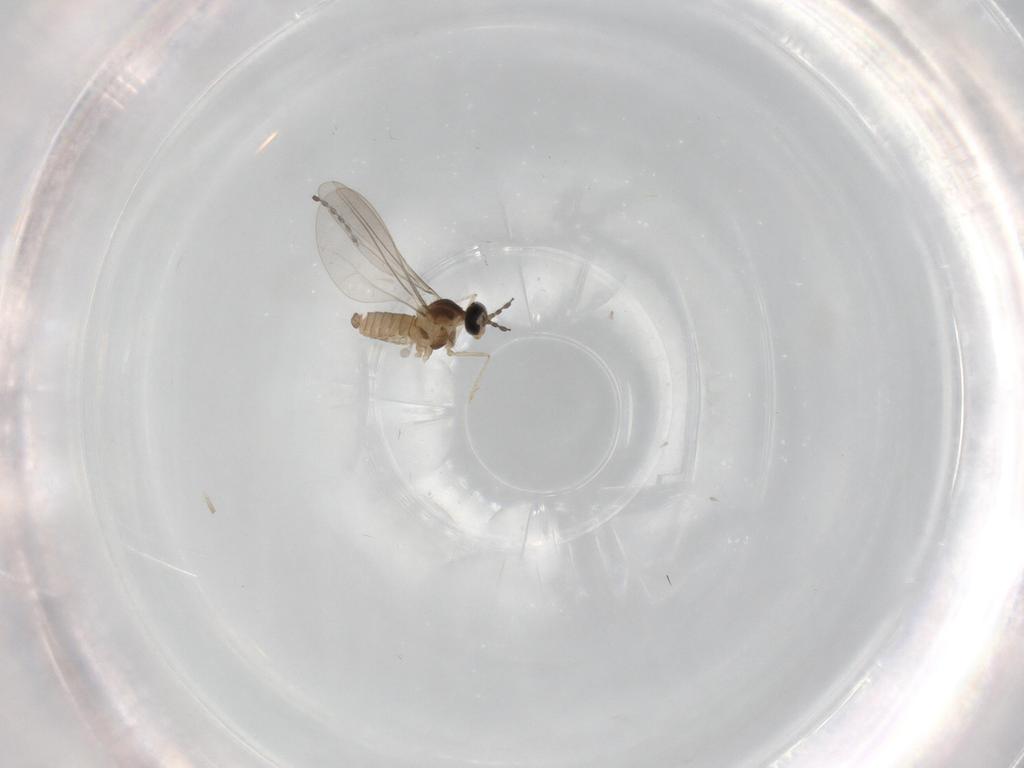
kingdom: Animalia
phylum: Arthropoda
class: Insecta
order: Diptera
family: Cecidomyiidae
